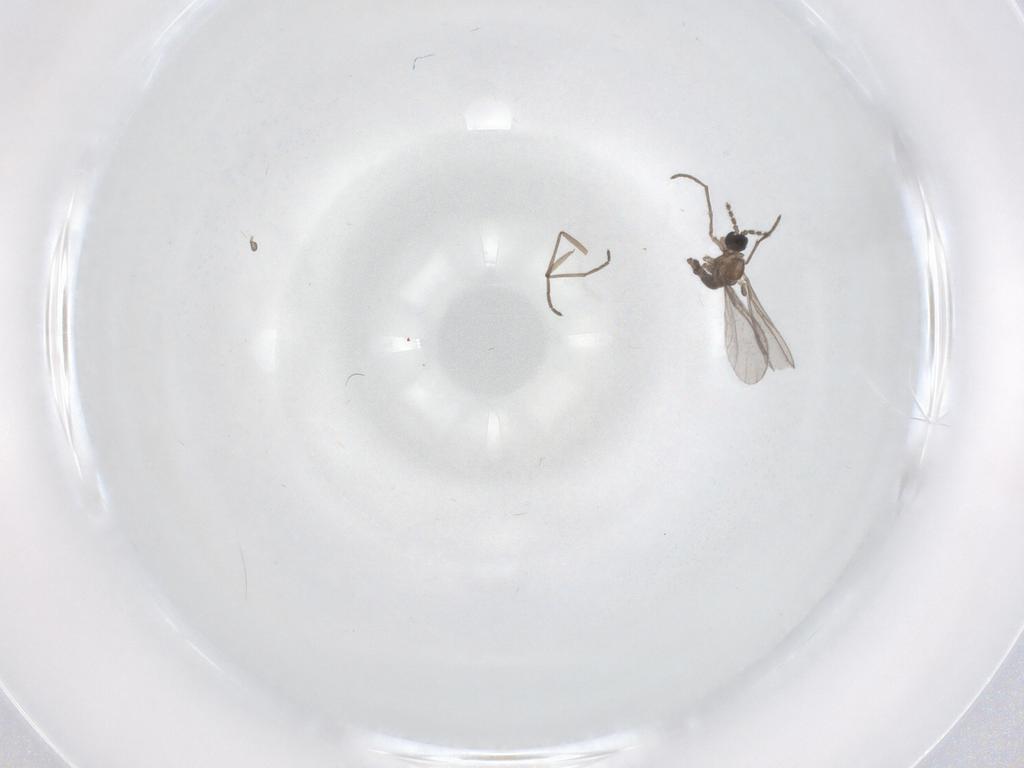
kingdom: Animalia
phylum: Arthropoda
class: Insecta
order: Diptera
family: Sciaridae
